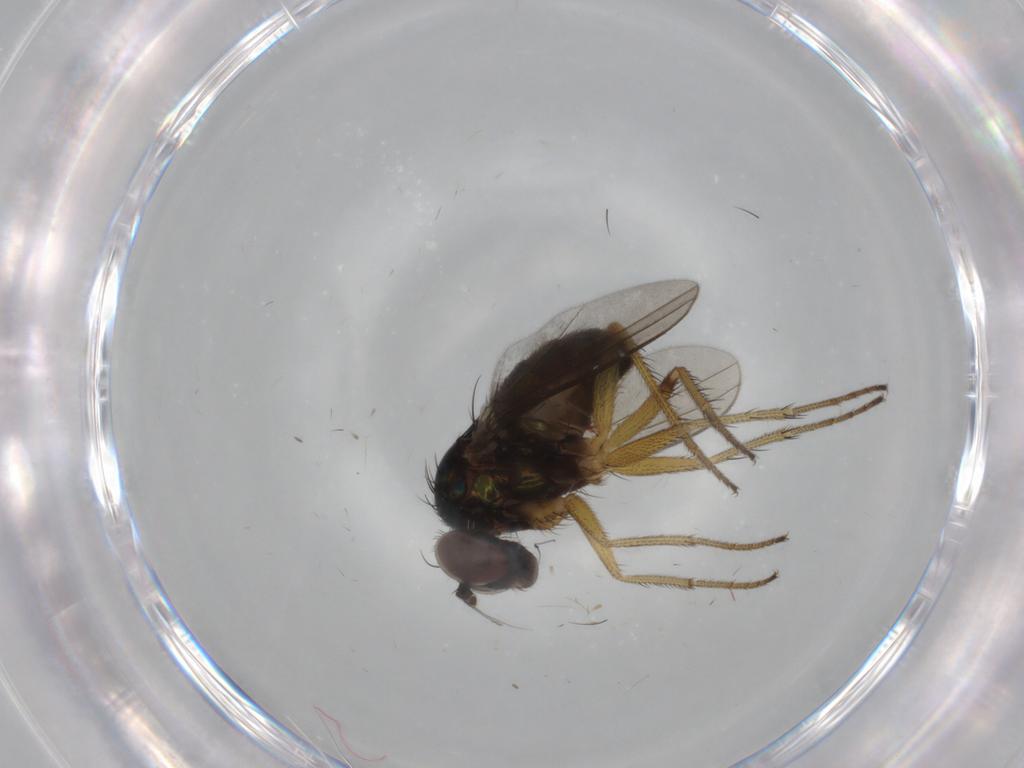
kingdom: Animalia
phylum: Arthropoda
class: Insecta
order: Diptera
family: Dolichopodidae
